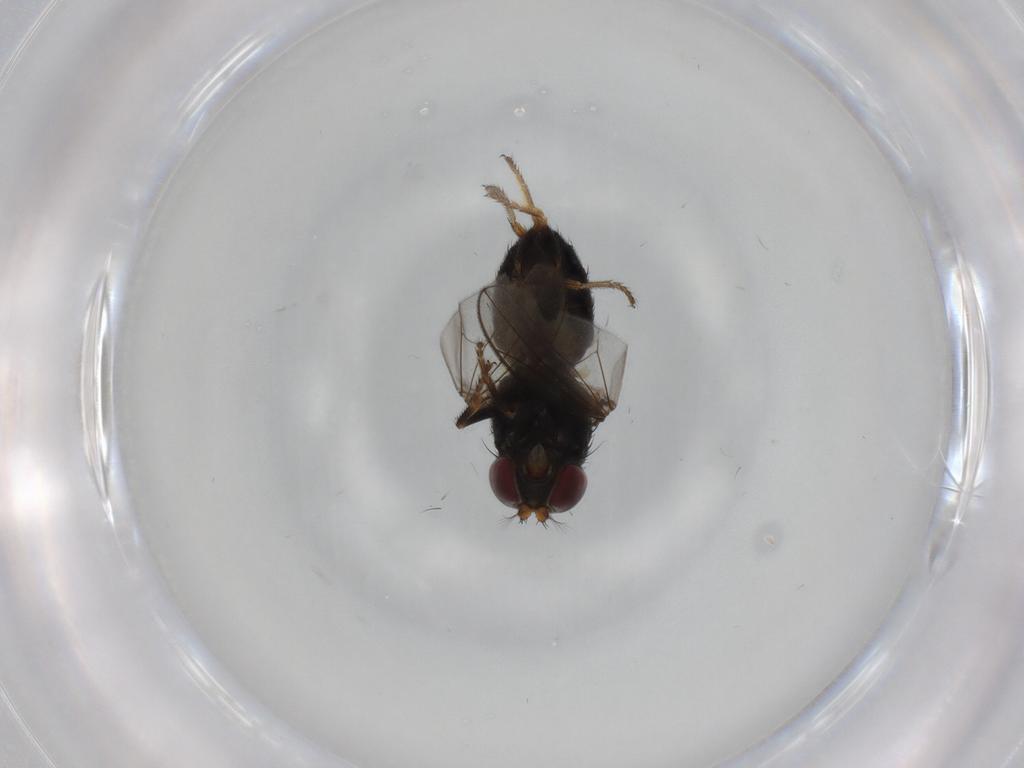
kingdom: Animalia
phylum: Arthropoda
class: Insecta
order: Diptera
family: Ephydridae
